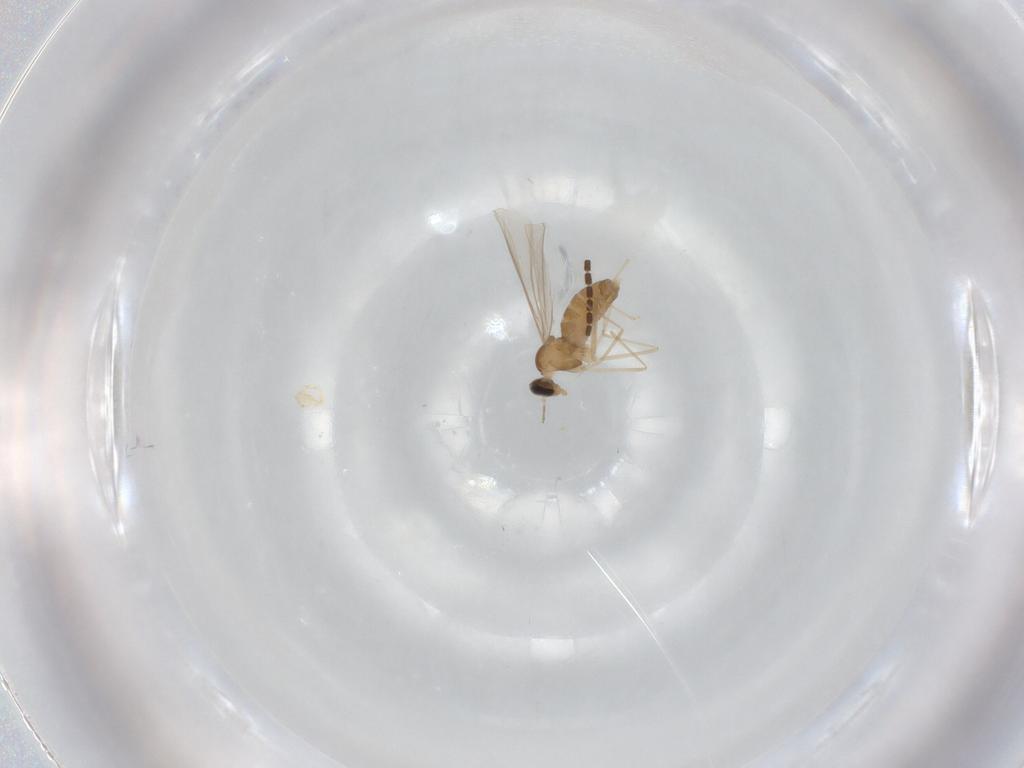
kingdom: Animalia
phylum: Arthropoda
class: Insecta
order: Diptera
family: Cecidomyiidae
